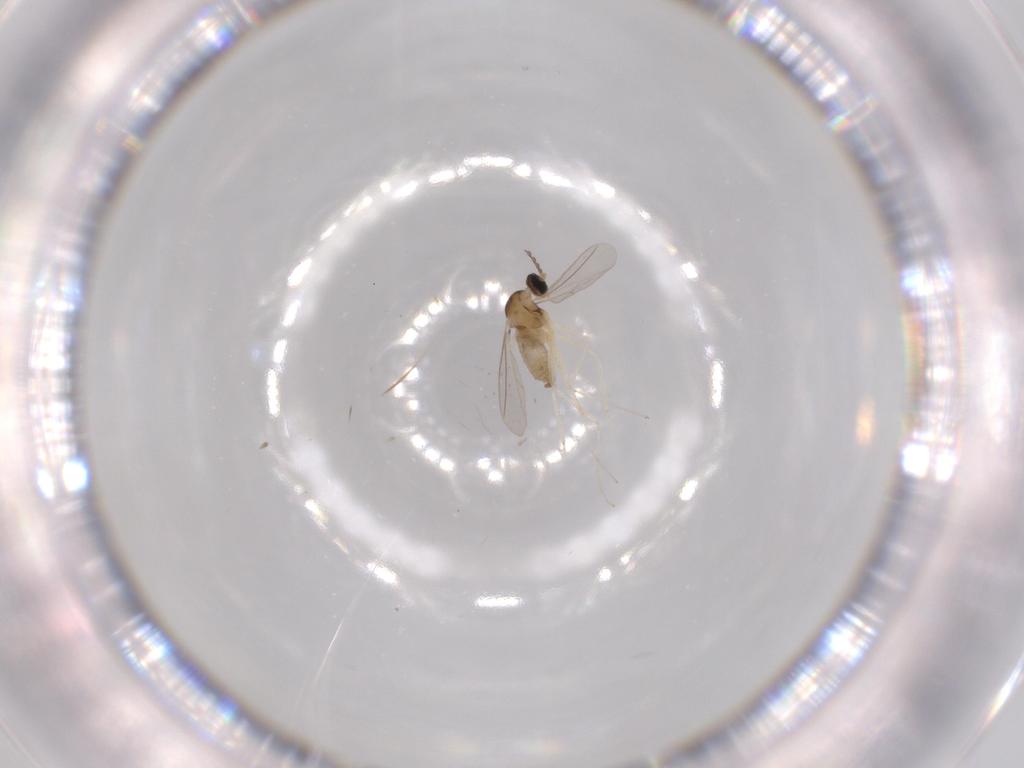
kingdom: Animalia
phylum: Arthropoda
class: Insecta
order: Diptera
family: Cecidomyiidae
